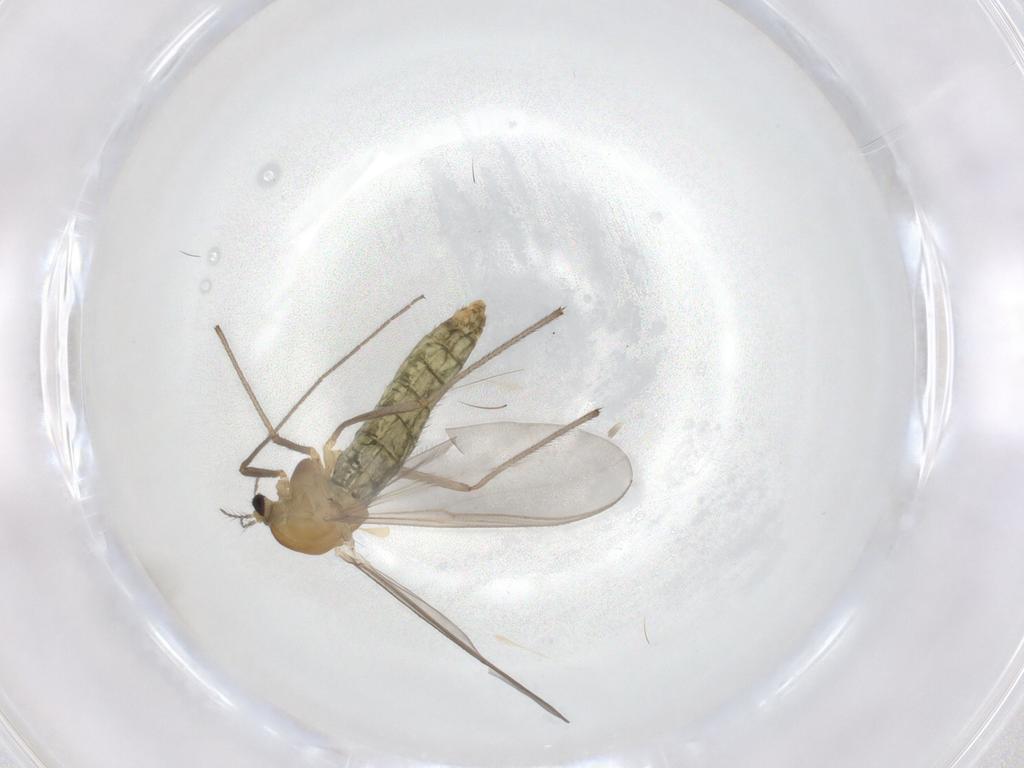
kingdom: Animalia
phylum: Arthropoda
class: Insecta
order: Diptera
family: Chironomidae
